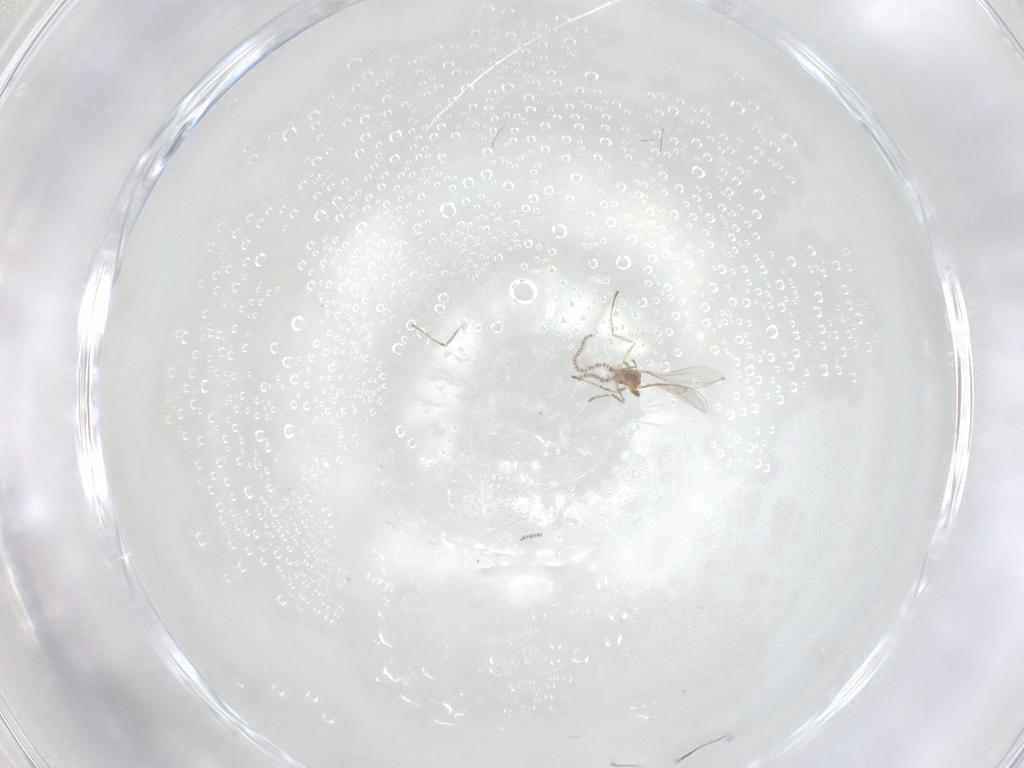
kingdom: Animalia
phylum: Arthropoda
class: Insecta
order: Diptera
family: Cecidomyiidae
